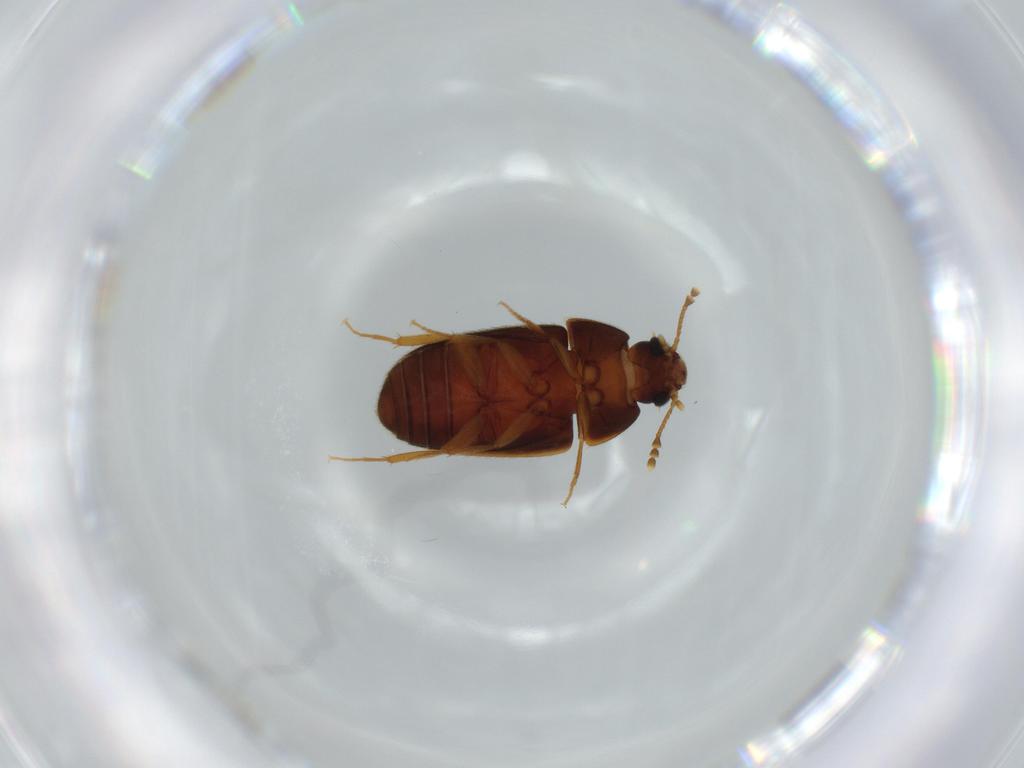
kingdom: Animalia
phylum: Arthropoda
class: Insecta
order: Coleoptera
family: Mycetophagidae
